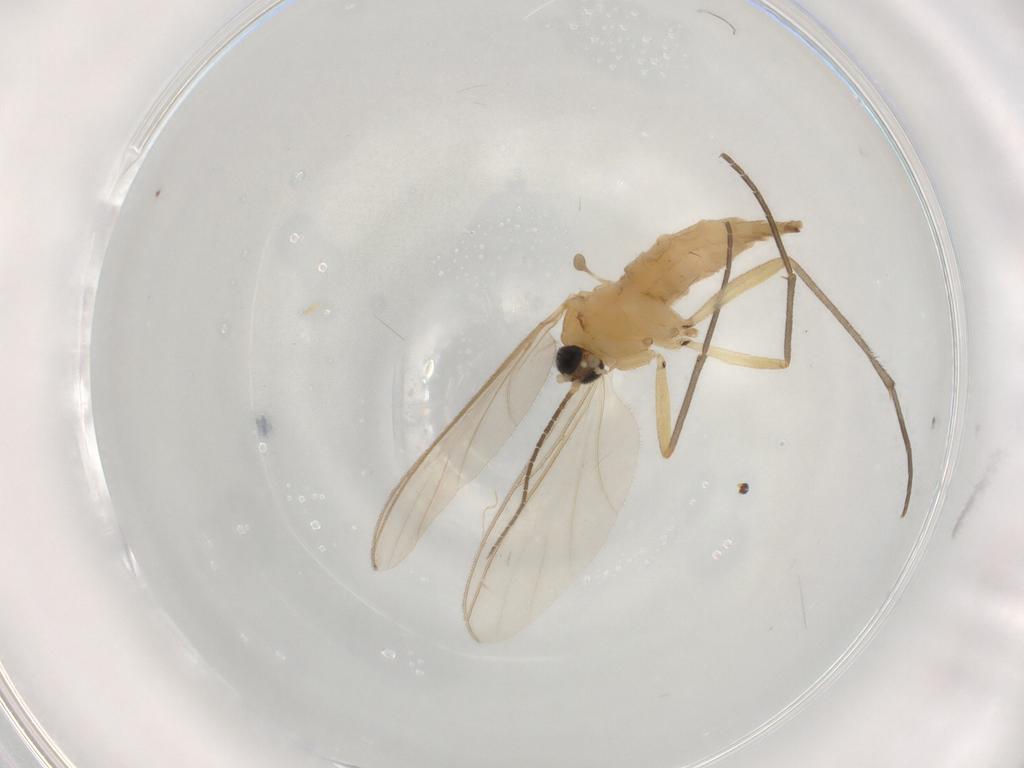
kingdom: Animalia
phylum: Arthropoda
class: Insecta
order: Diptera
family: Sciaridae
